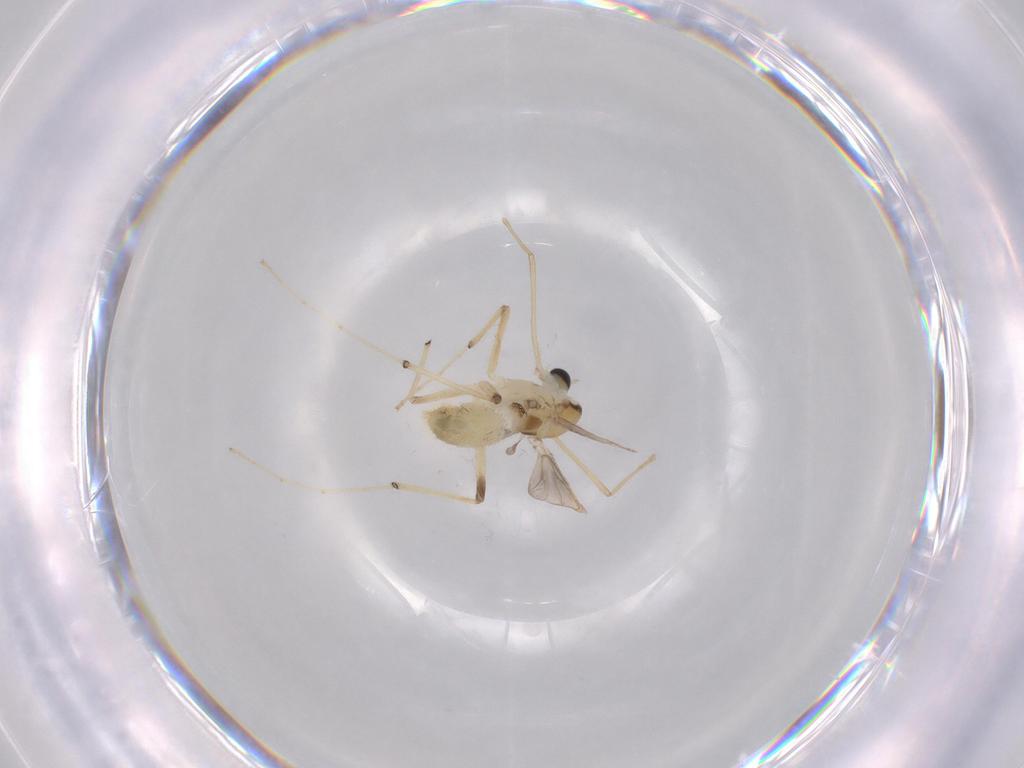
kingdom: Animalia
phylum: Arthropoda
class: Insecta
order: Diptera
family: Chironomidae
